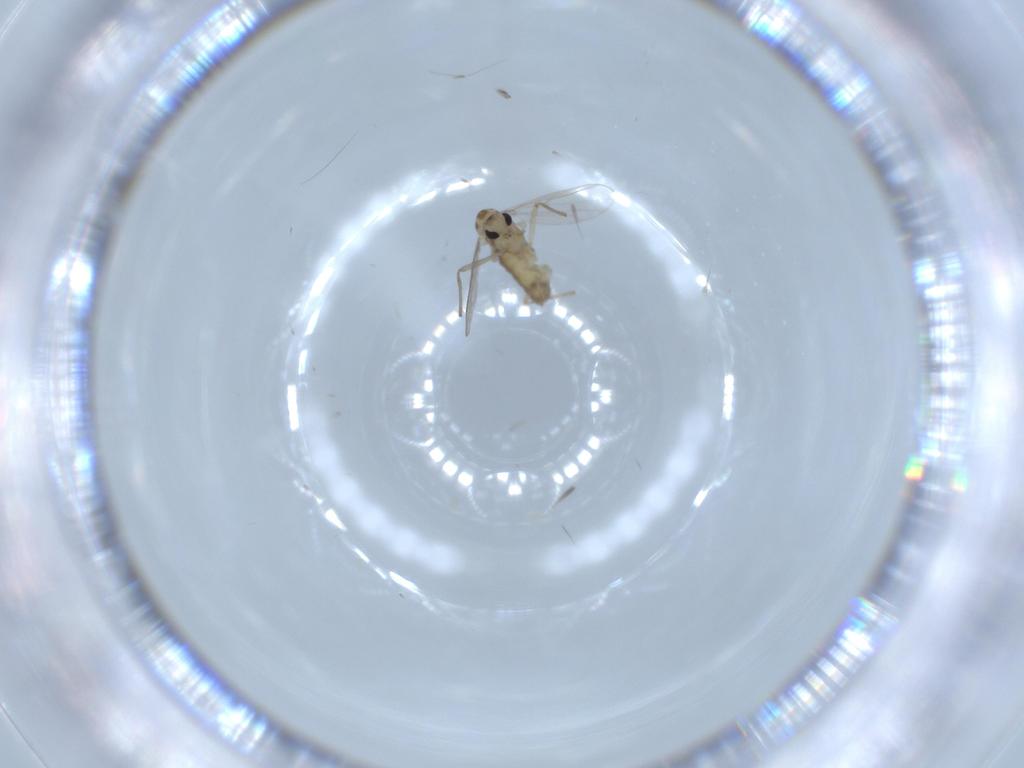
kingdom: Animalia
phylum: Arthropoda
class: Insecta
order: Diptera
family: Chironomidae
